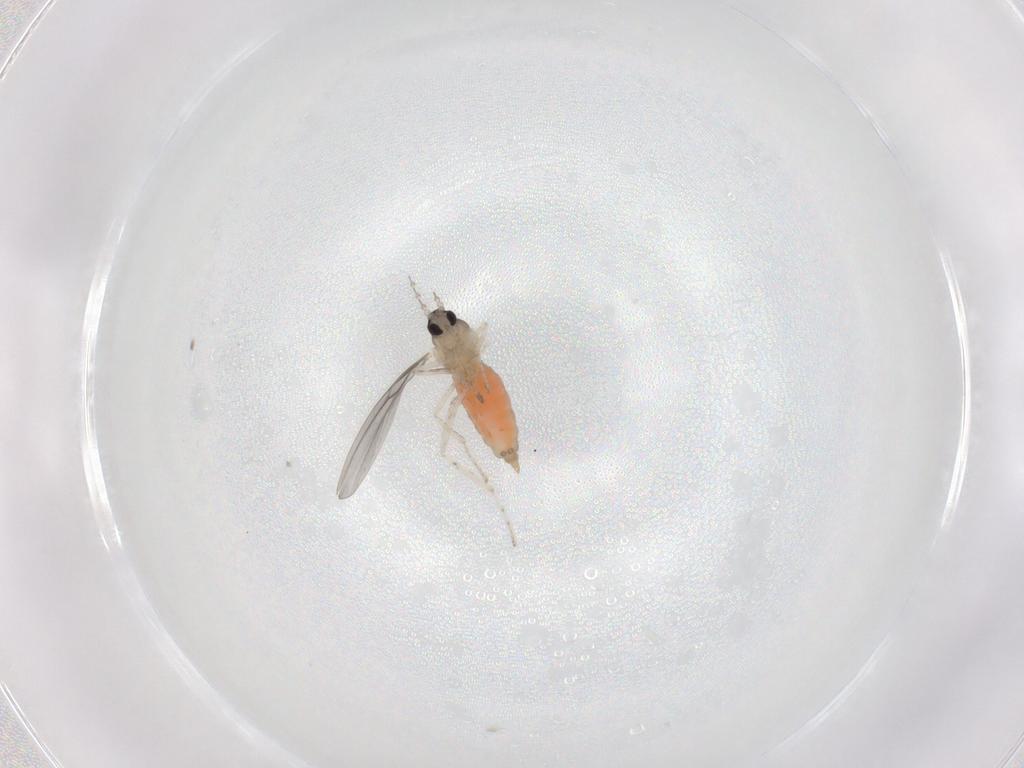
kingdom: Animalia
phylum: Arthropoda
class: Insecta
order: Diptera
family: Cecidomyiidae
